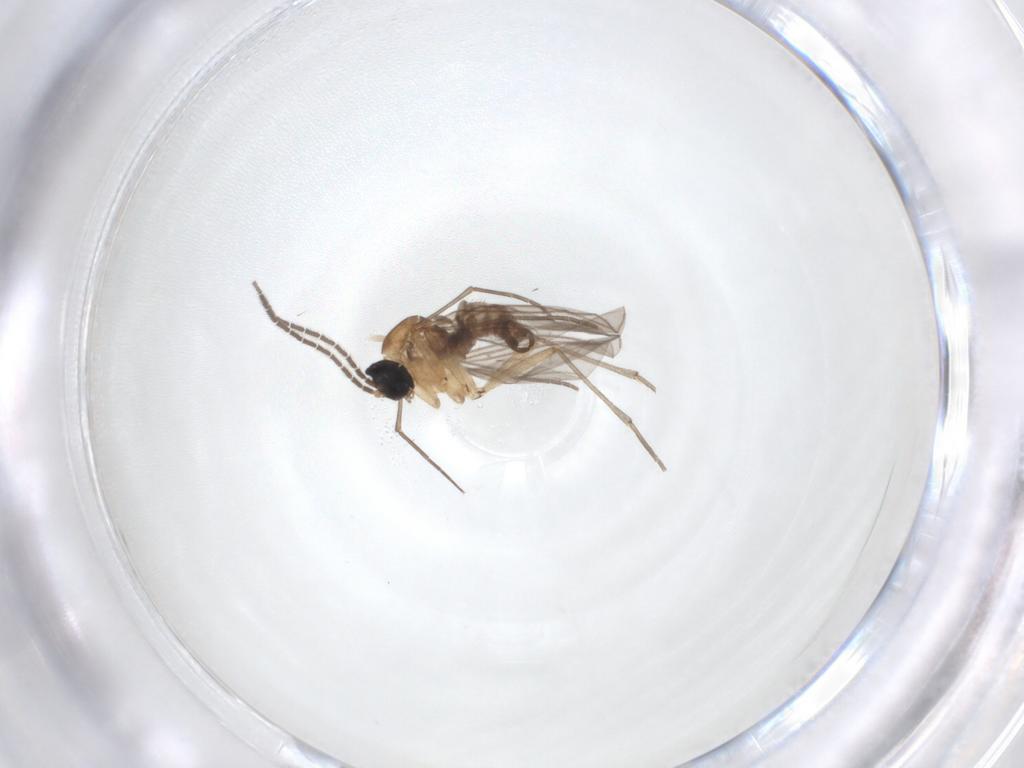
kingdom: Animalia
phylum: Arthropoda
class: Insecta
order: Diptera
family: Sciaridae
